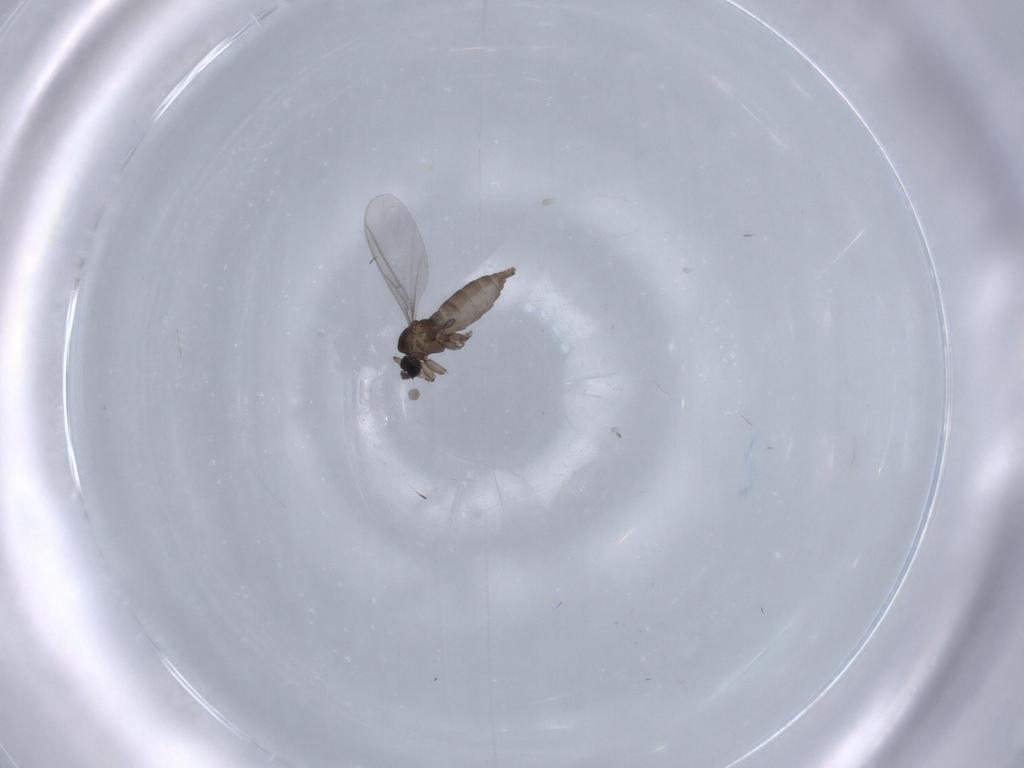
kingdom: Animalia
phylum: Arthropoda
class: Insecta
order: Diptera
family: Sciaridae
